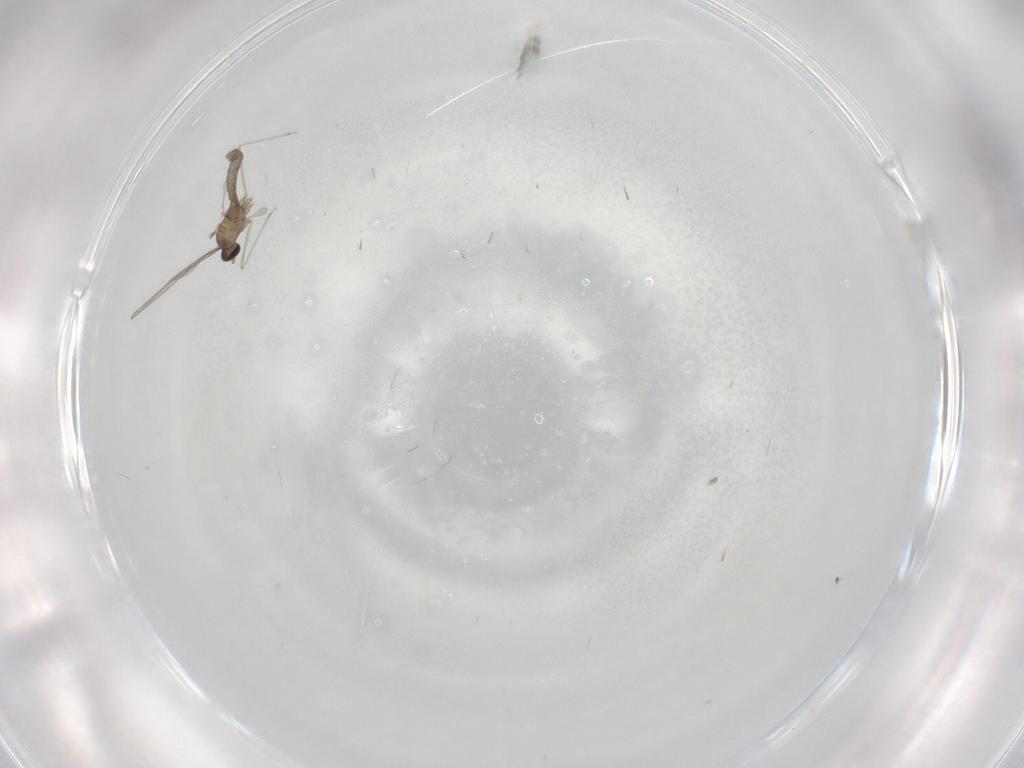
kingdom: Animalia
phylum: Arthropoda
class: Insecta
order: Diptera
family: Cecidomyiidae
